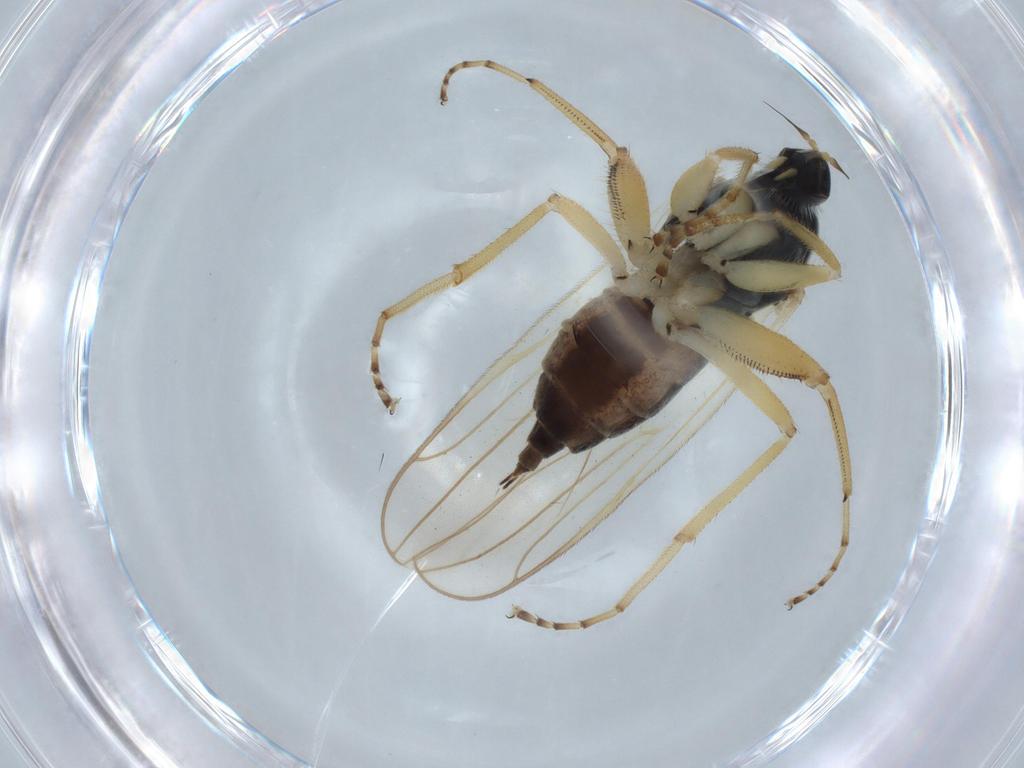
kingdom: Animalia
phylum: Arthropoda
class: Insecta
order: Diptera
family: Hybotidae
